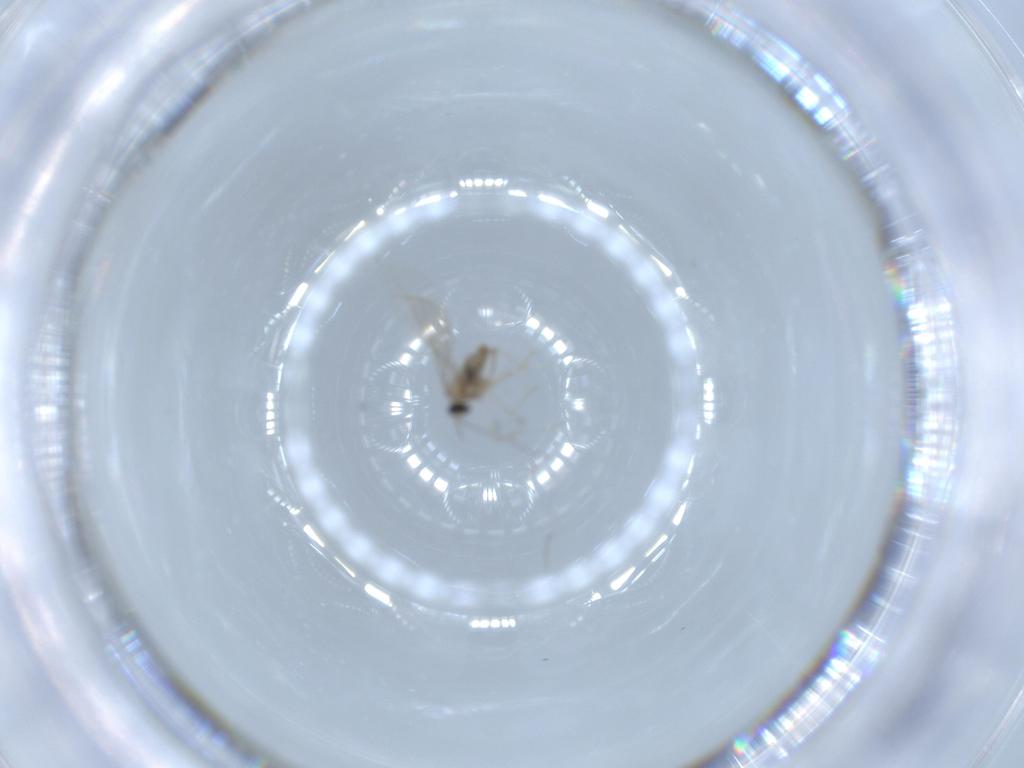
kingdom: Animalia
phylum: Arthropoda
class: Insecta
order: Diptera
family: Cecidomyiidae
